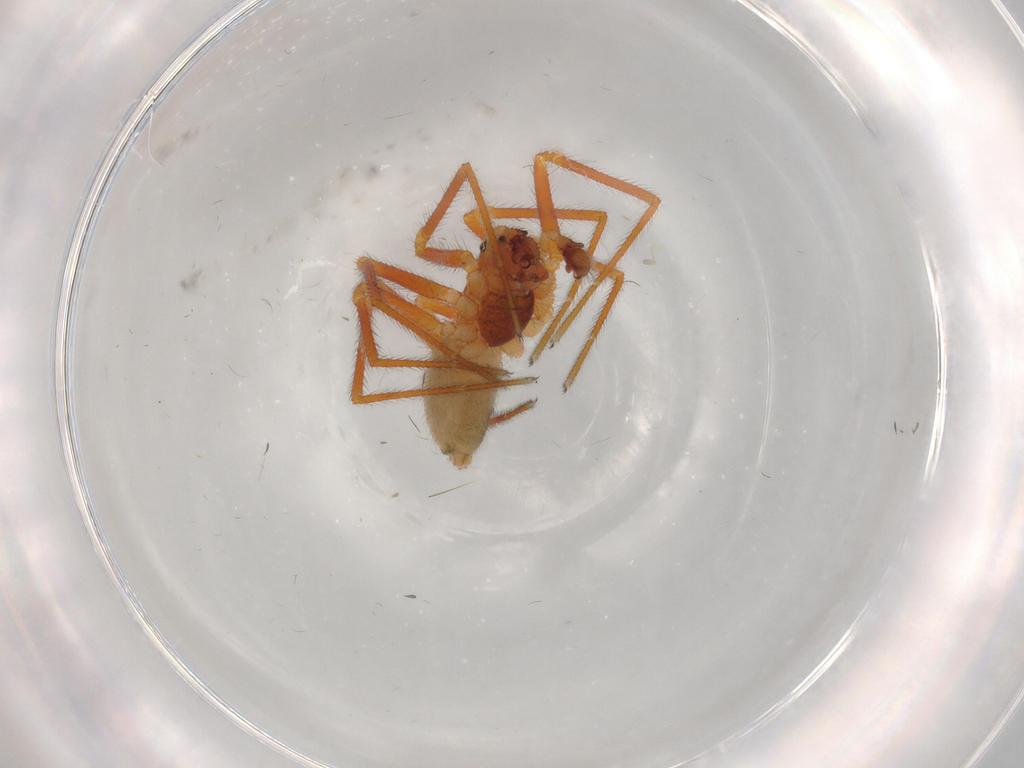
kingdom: Animalia
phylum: Arthropoda
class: Arachnida
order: Araneae
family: Linyphiidae
